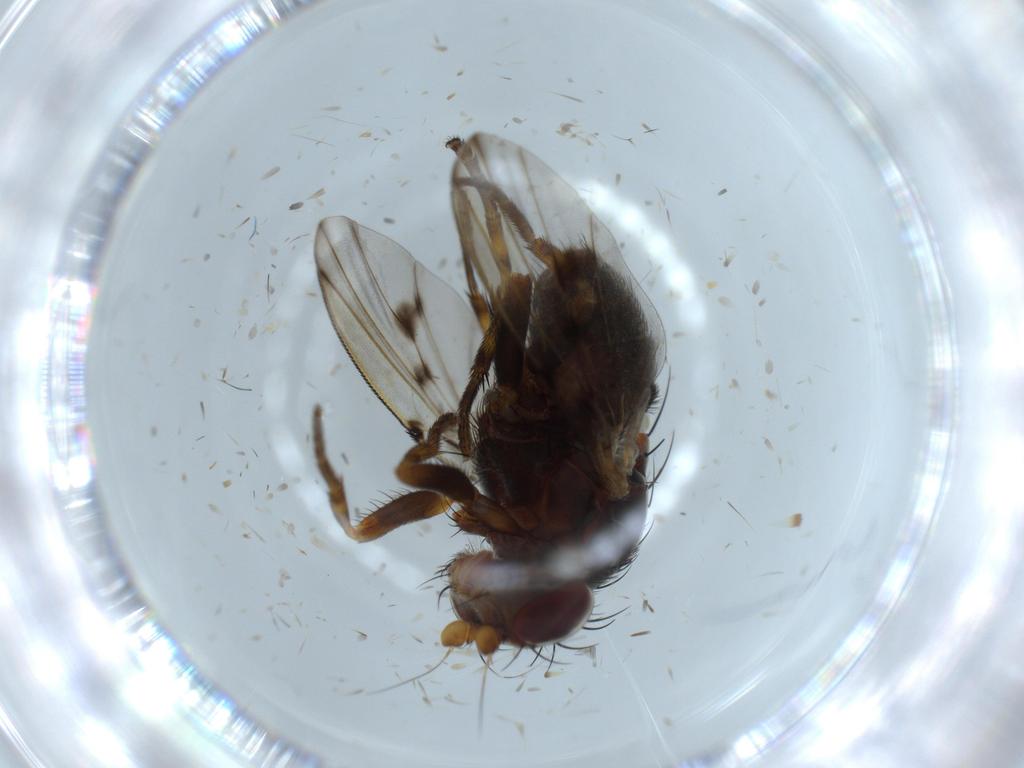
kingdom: Animalia
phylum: Arthropoda
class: Insecta
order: Diptera
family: Odiniidae
